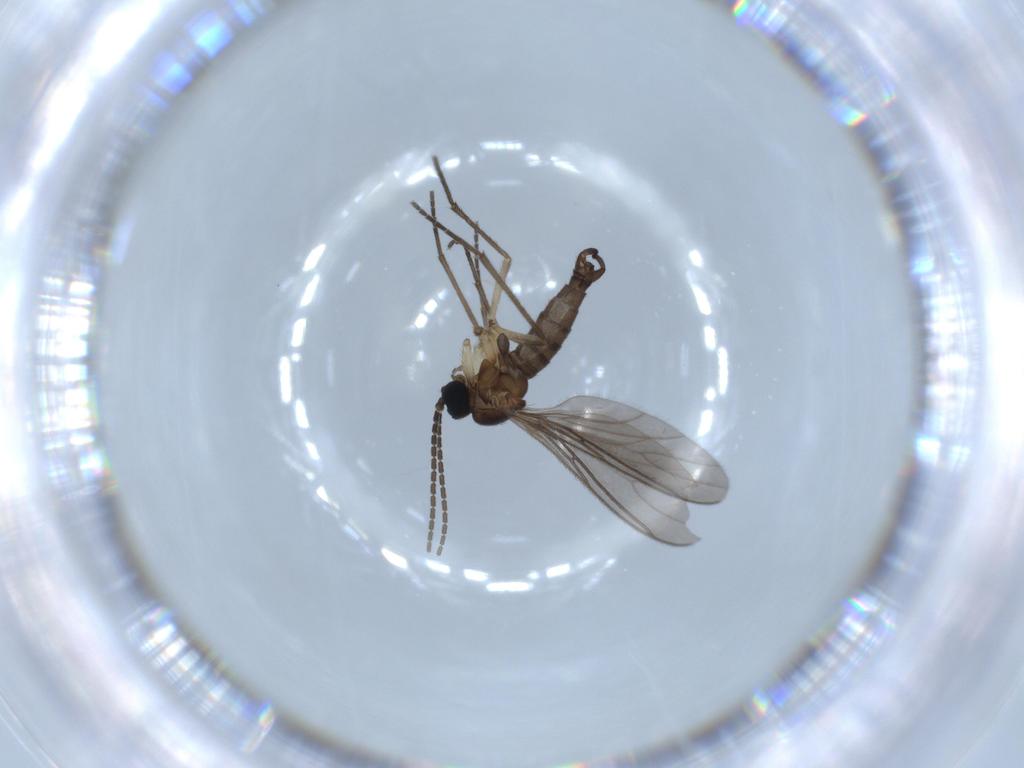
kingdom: Animalia
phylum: Arthropoda
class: Insecta
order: Diptera
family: Sciaridae
